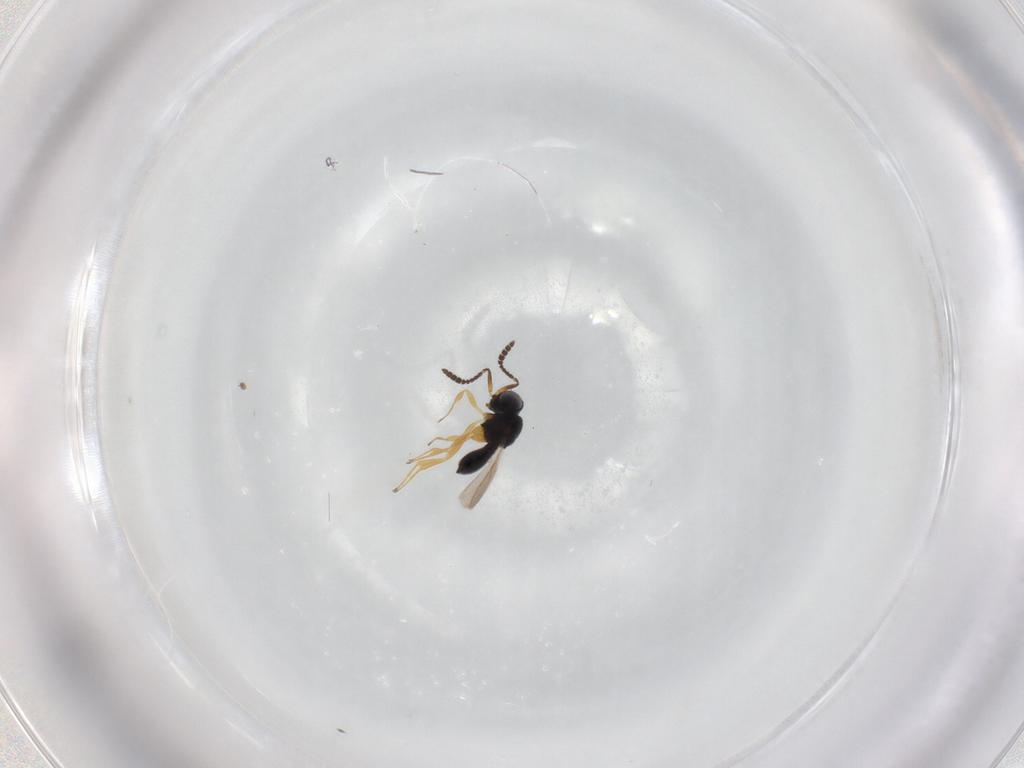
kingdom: Animalia
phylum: Arthropoda
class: Insecta
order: Hymenoptera
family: Scelionidae
